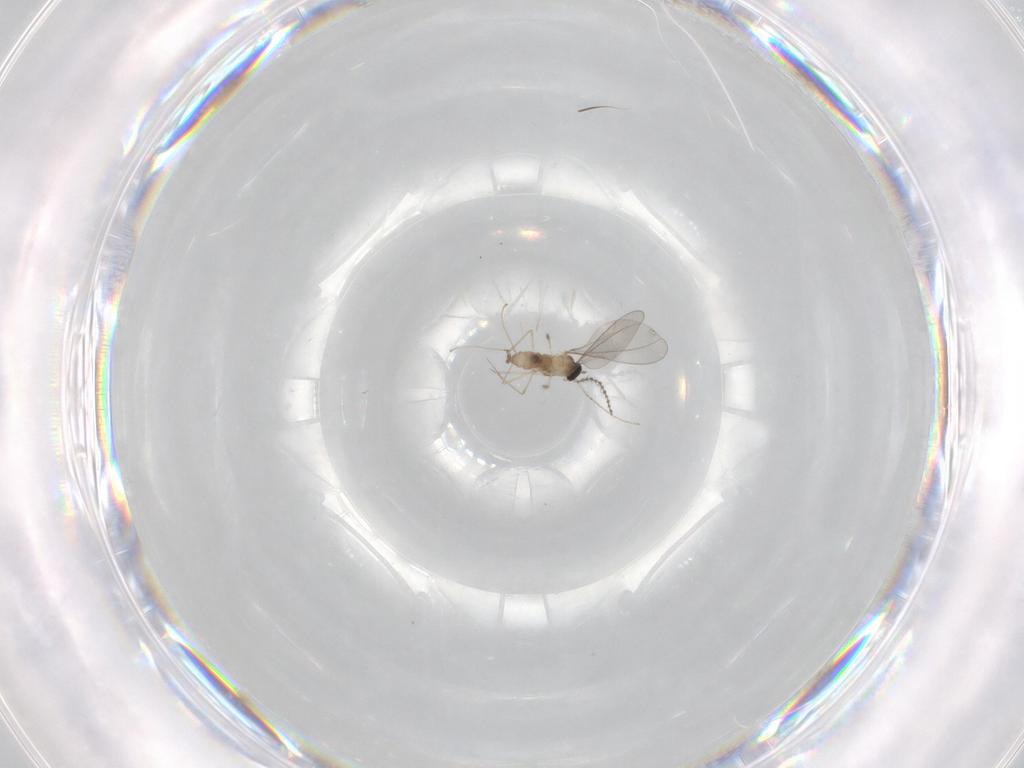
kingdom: Animalia
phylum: Arthropoda
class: Insecta
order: Diptera
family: Cecidomyiidae
